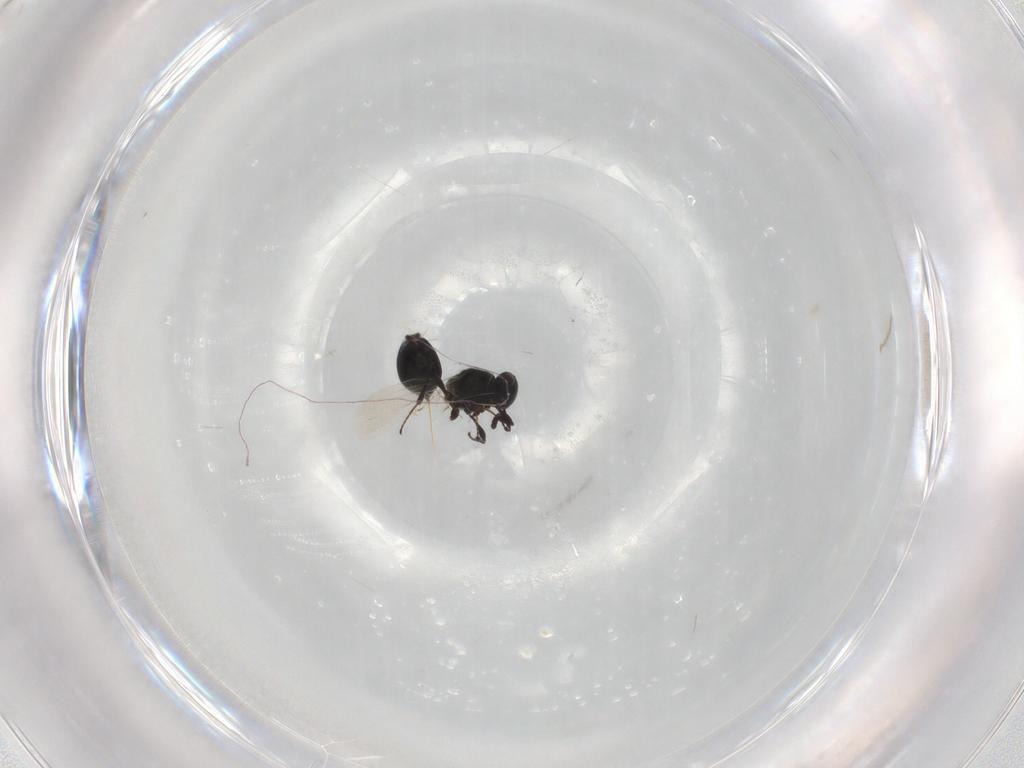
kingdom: Animalia
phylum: Arthropoda
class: Insecta
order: Hymenoptera
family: Platygastridae
